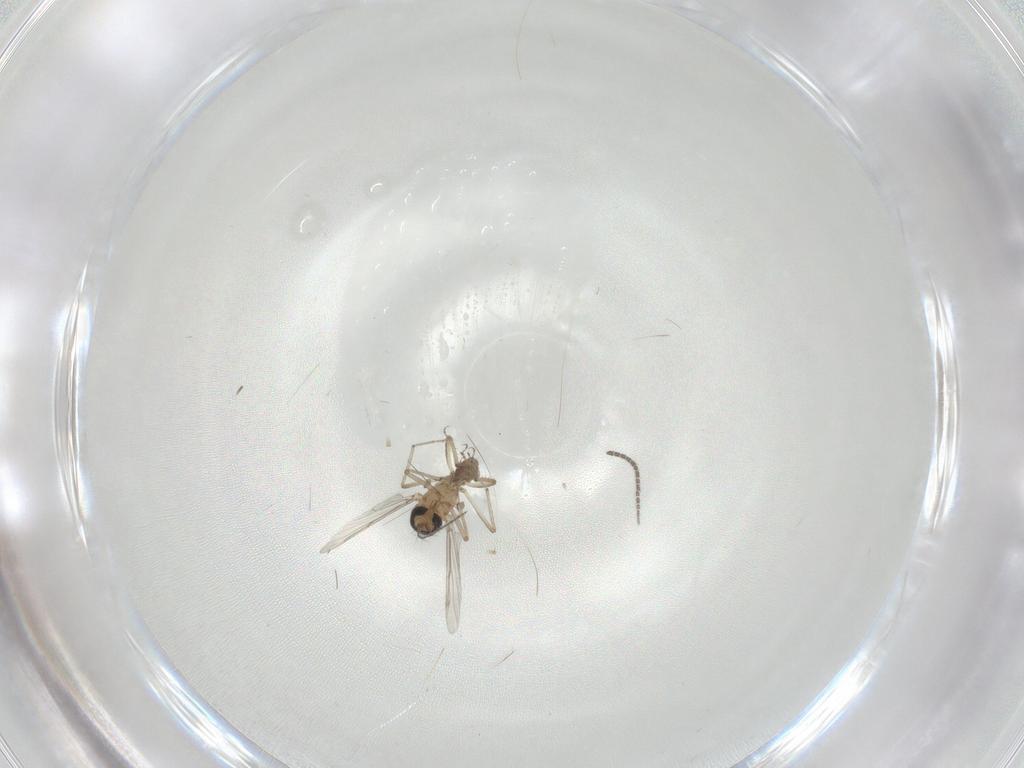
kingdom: Animalia
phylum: Arthropoda
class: Insecta
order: Diptera
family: Sciaridae
